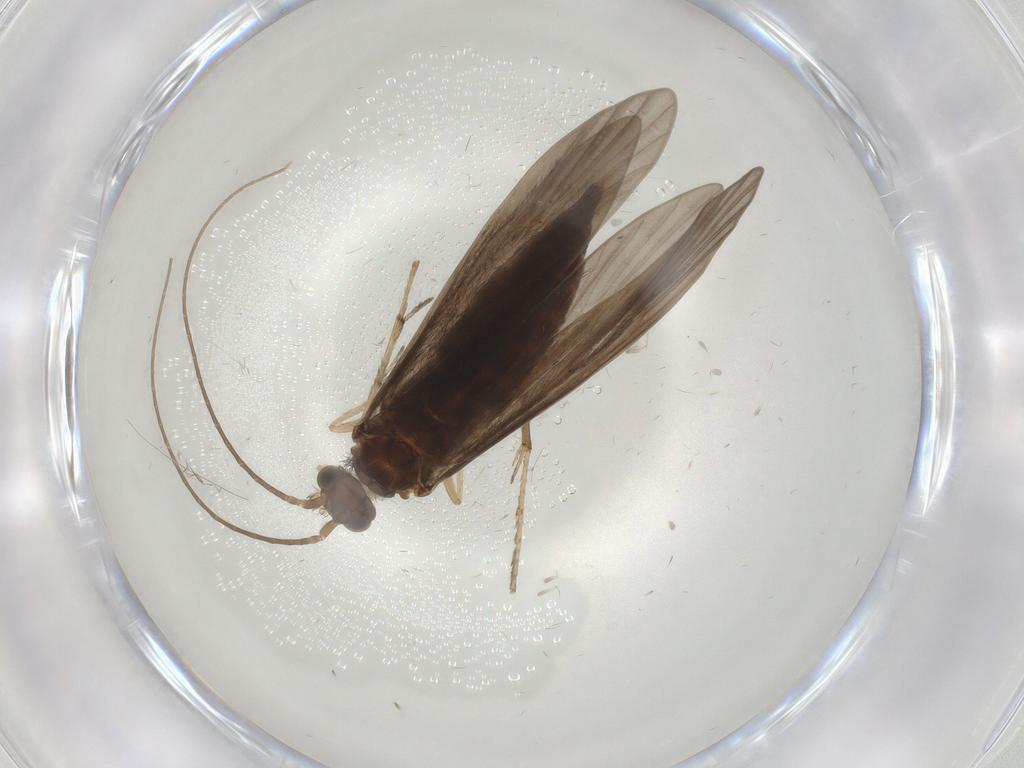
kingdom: Animalia
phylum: Arthropoda
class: Insecta
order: Trichoptera
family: Xiphocentronidae
